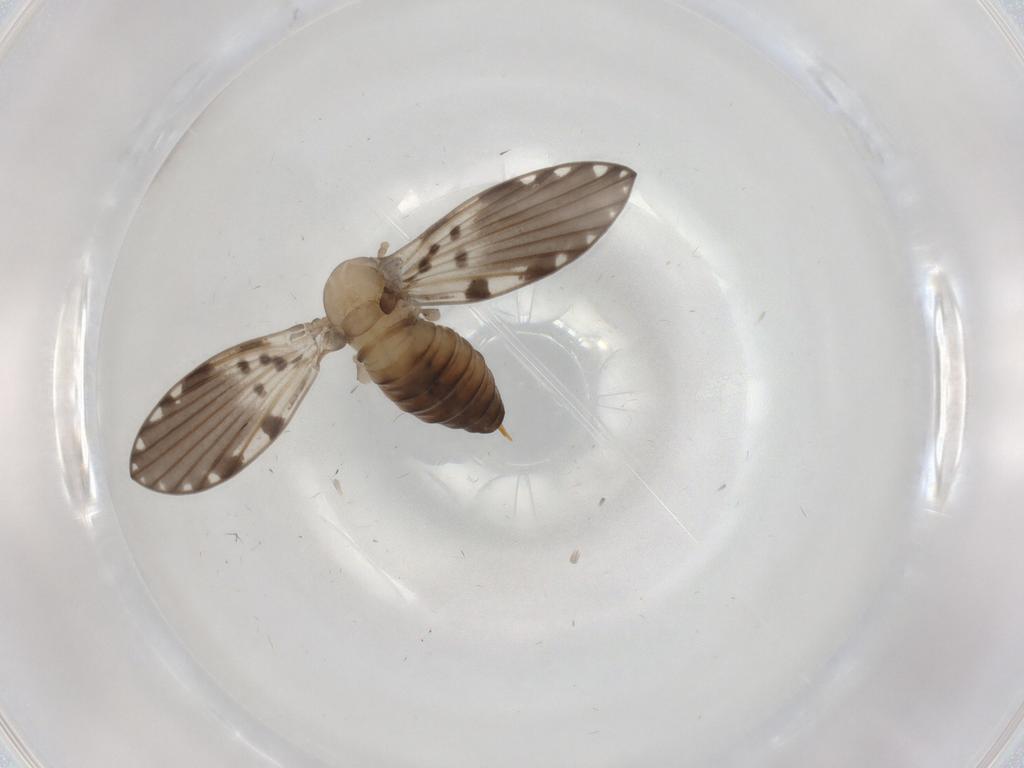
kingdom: Animalia
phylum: Arthropoda
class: Insecta
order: Diptera
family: Psychodidae
